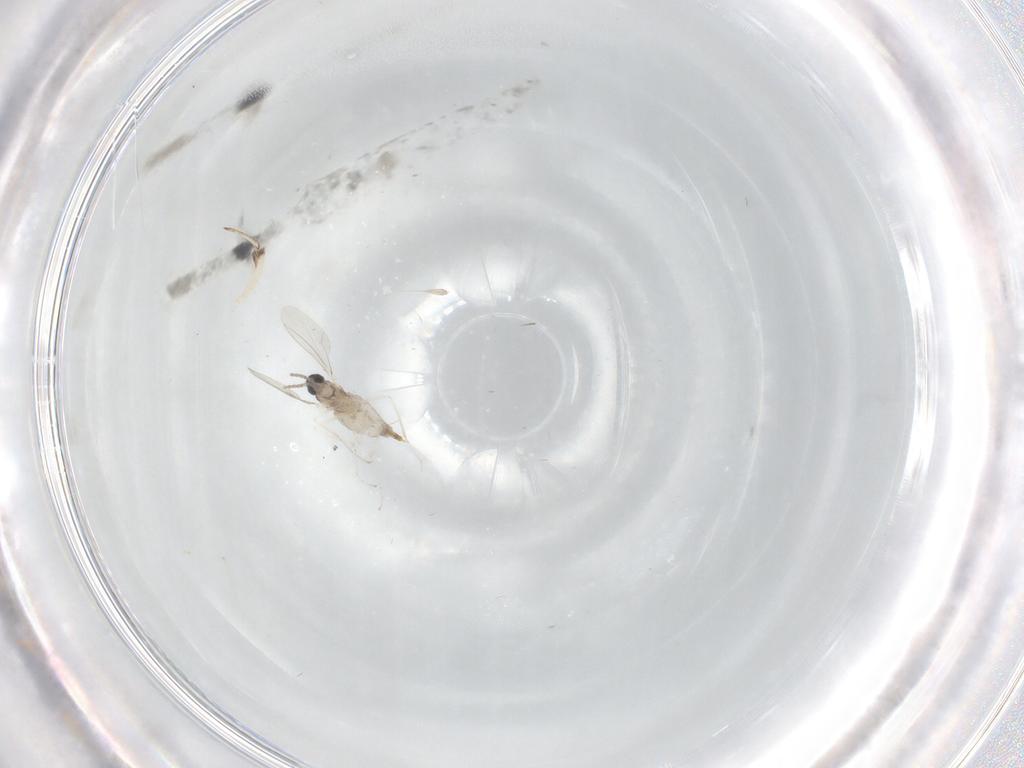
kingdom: Animalia
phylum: Arthropoda
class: Insecta
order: Diptera
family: Cecidomyiidae
